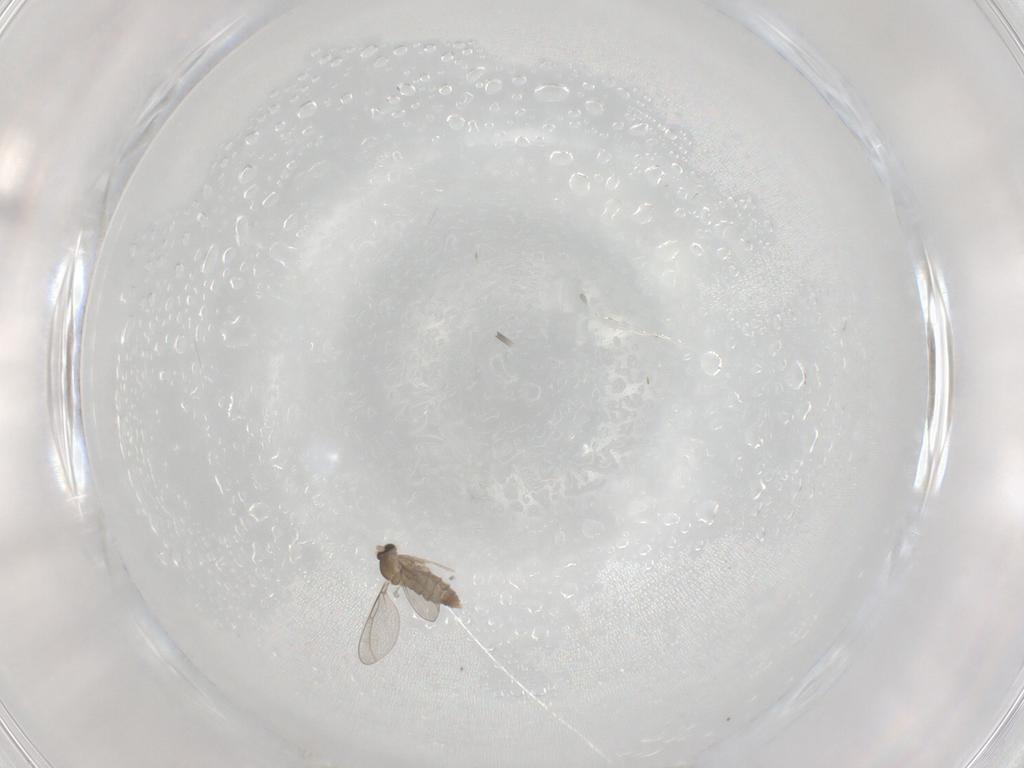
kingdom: Animalia
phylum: Arthropoda
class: Insecta
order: Diptera
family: Cecidomyiidae
